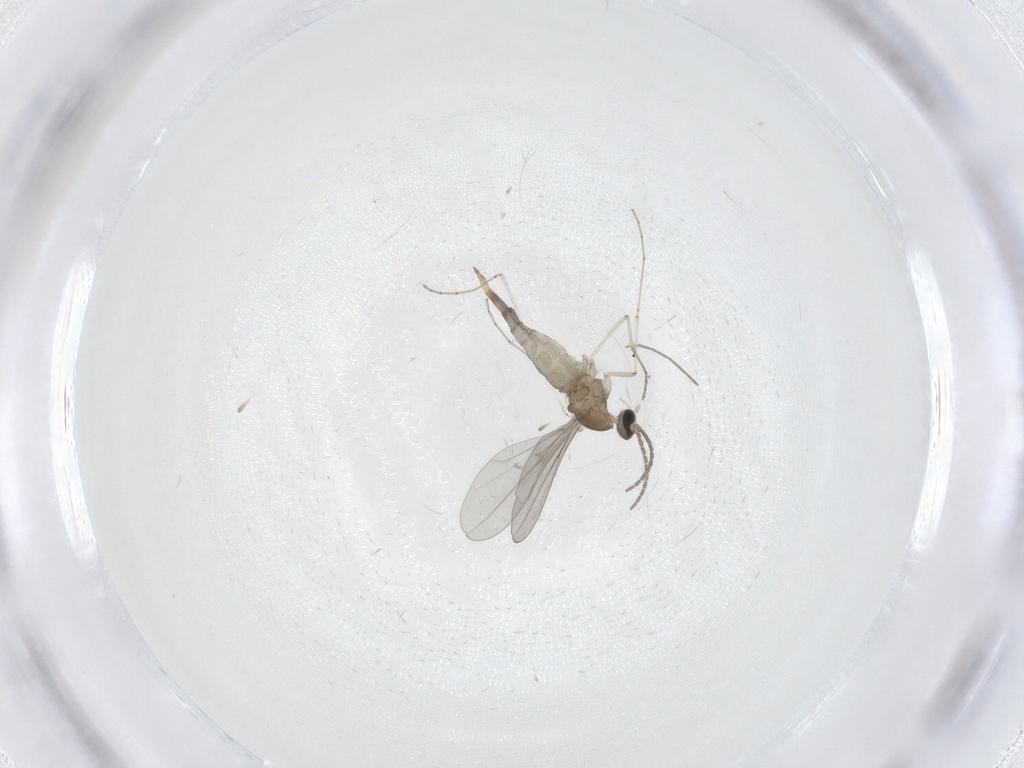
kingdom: Animalia
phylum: Arthropoda
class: Insecta
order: Diptera
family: Cecidomyiidae
